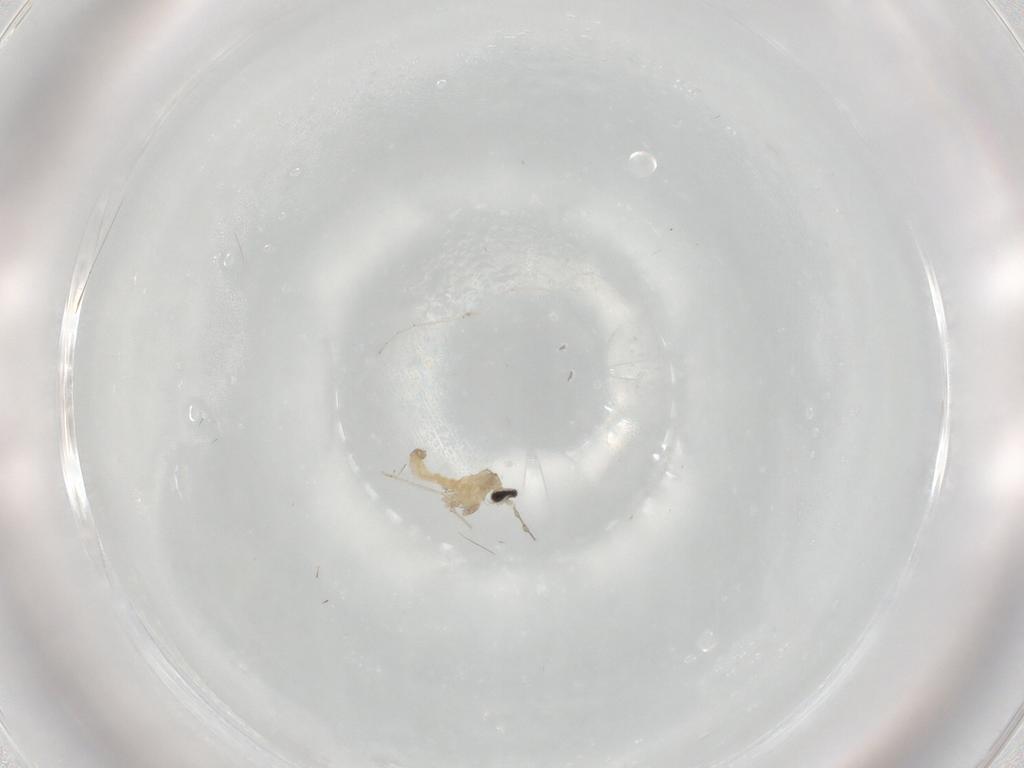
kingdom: Animalia
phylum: Arthropoda
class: Insecta
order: Diptera
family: Cecidomyiidae
